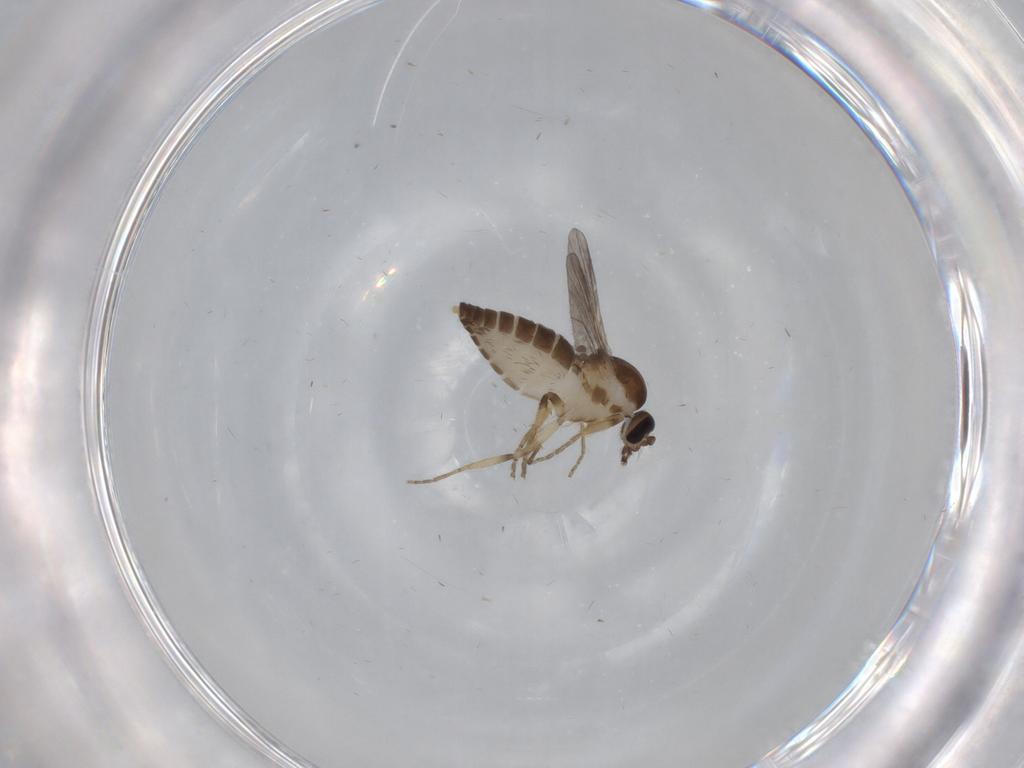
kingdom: Animalia
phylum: Arthropoda
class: Insecta
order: Diptera
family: Ceratopogonidae
